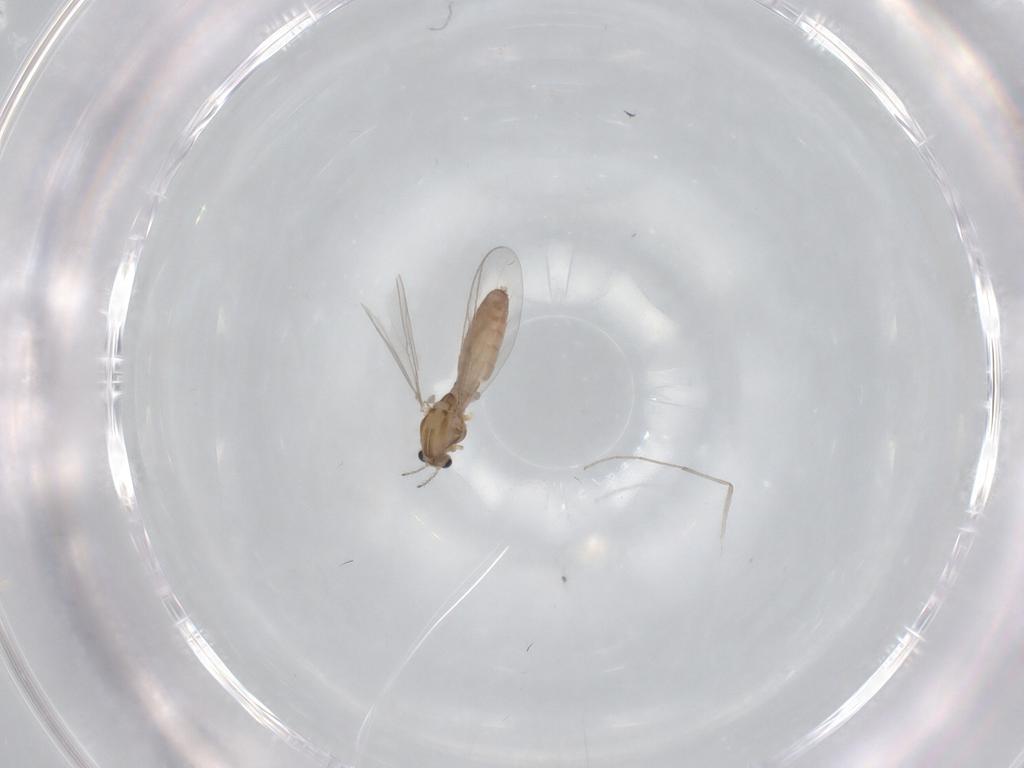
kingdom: Animalia
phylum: Arthropoda
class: Insecta
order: Diptera
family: Chironomidae
